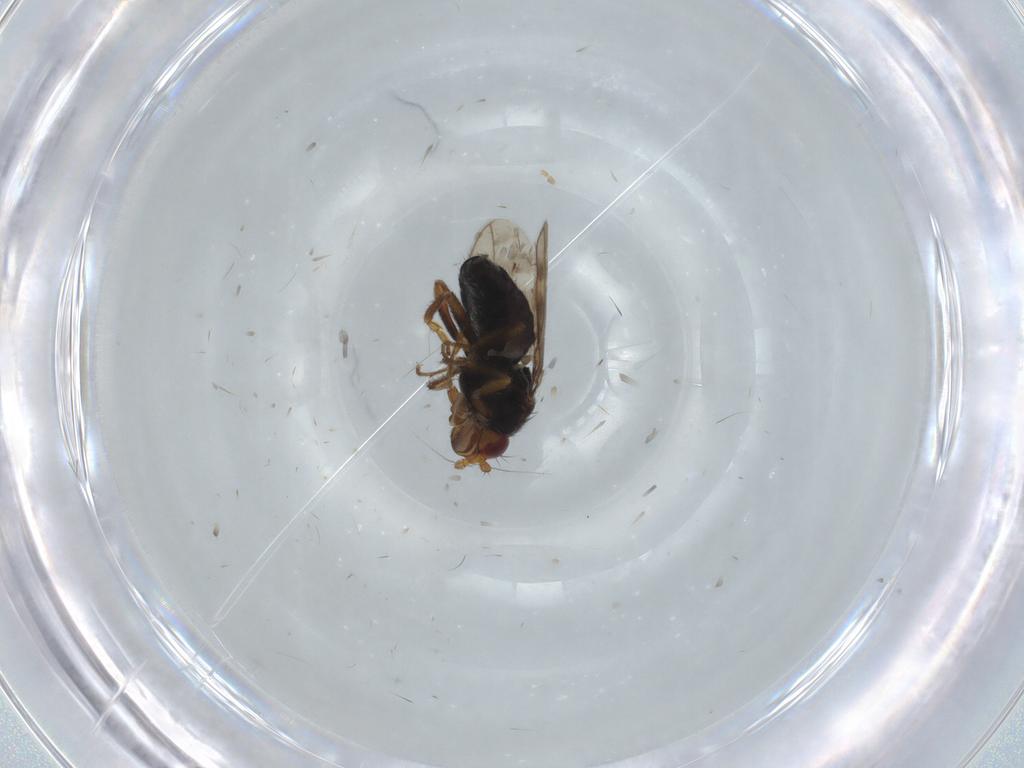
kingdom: Animalia
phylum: Arthropoda
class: Insecta
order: Diptera
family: Sphaeroceridae
